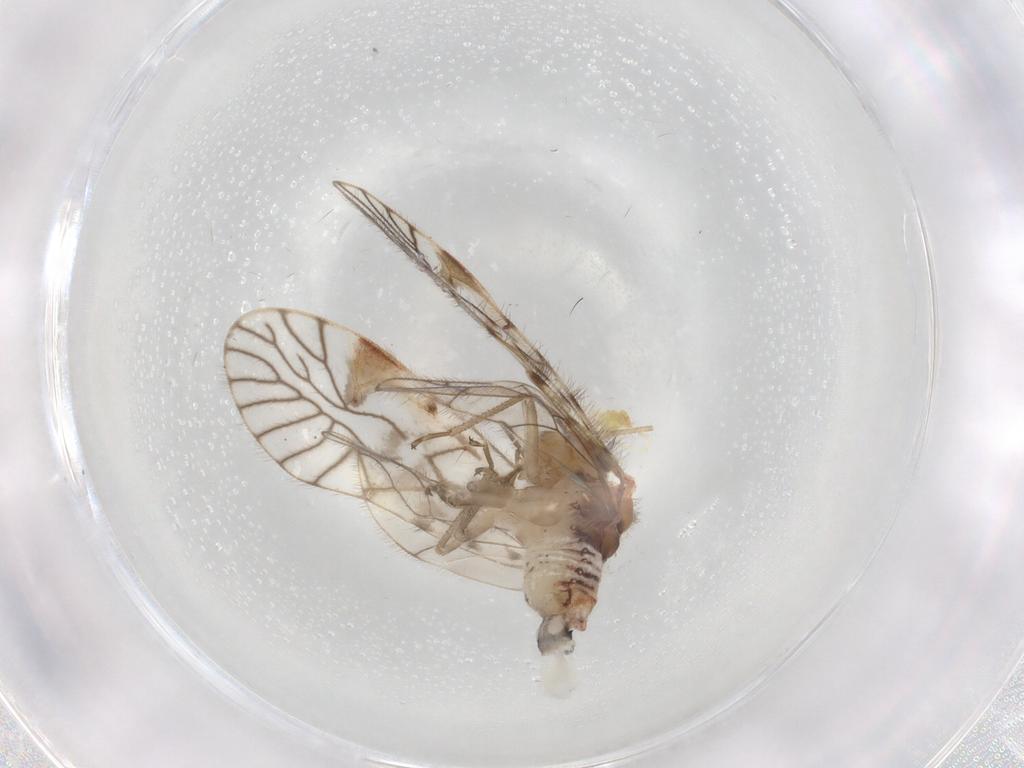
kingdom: Animalia
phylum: Arthropoda
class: Insecta
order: Psocodea
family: Amphipsocidae
